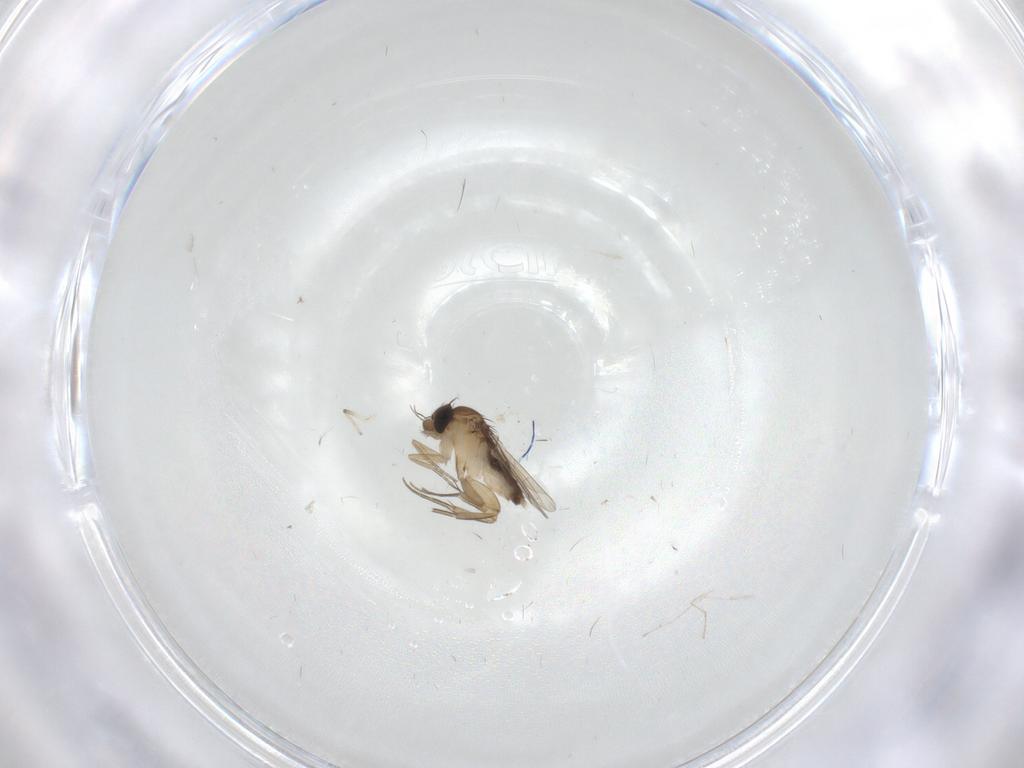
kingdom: Animalia
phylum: Arthropoda
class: Insecta
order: Diptera
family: Phoridae
